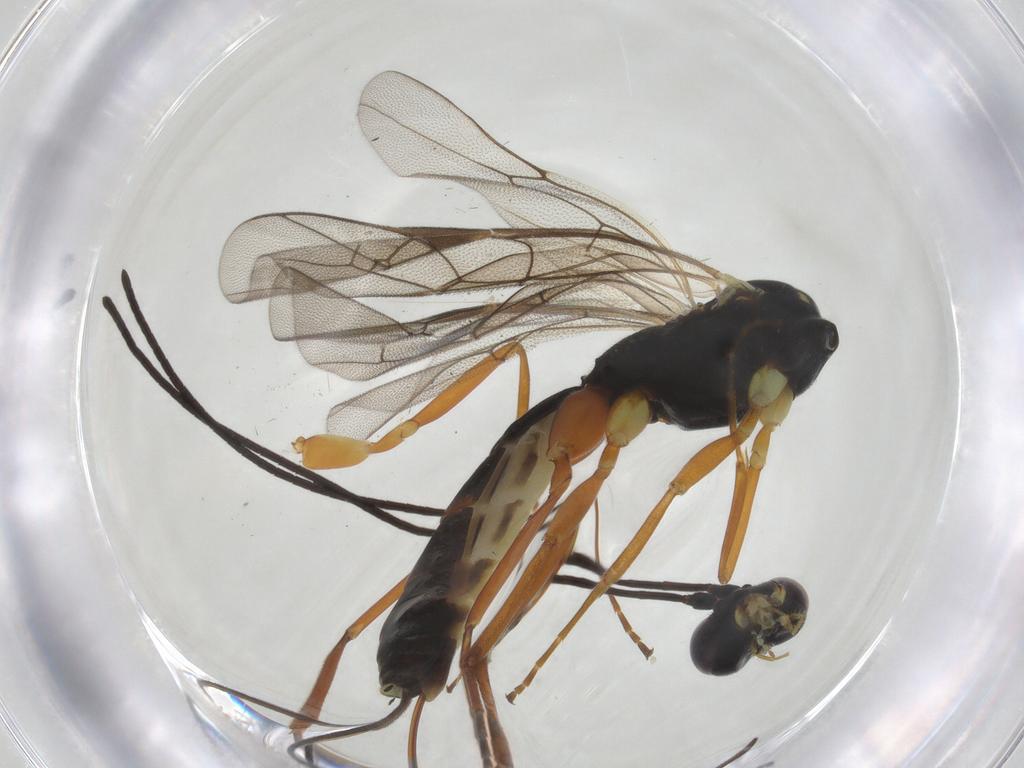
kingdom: Animalia
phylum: Arthropoda
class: Insecta
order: Hymenoptera
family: Braconidae
